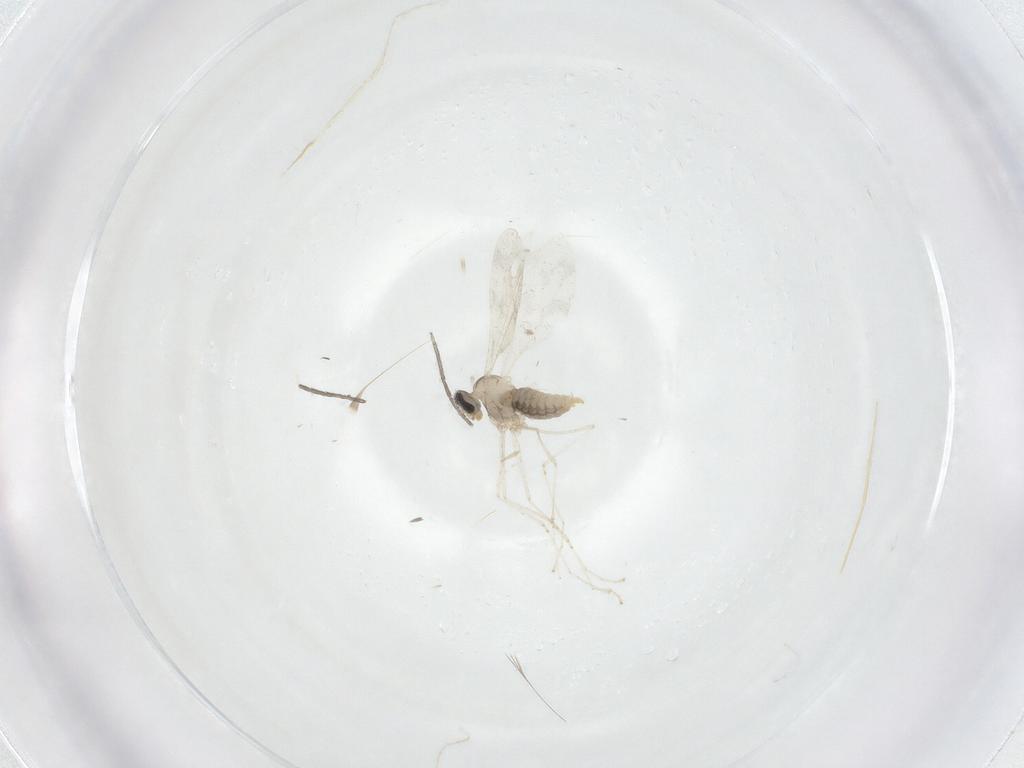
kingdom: Animalia
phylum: Arthropoda
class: Insecta
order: Diptera
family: Cecidomyiidae
